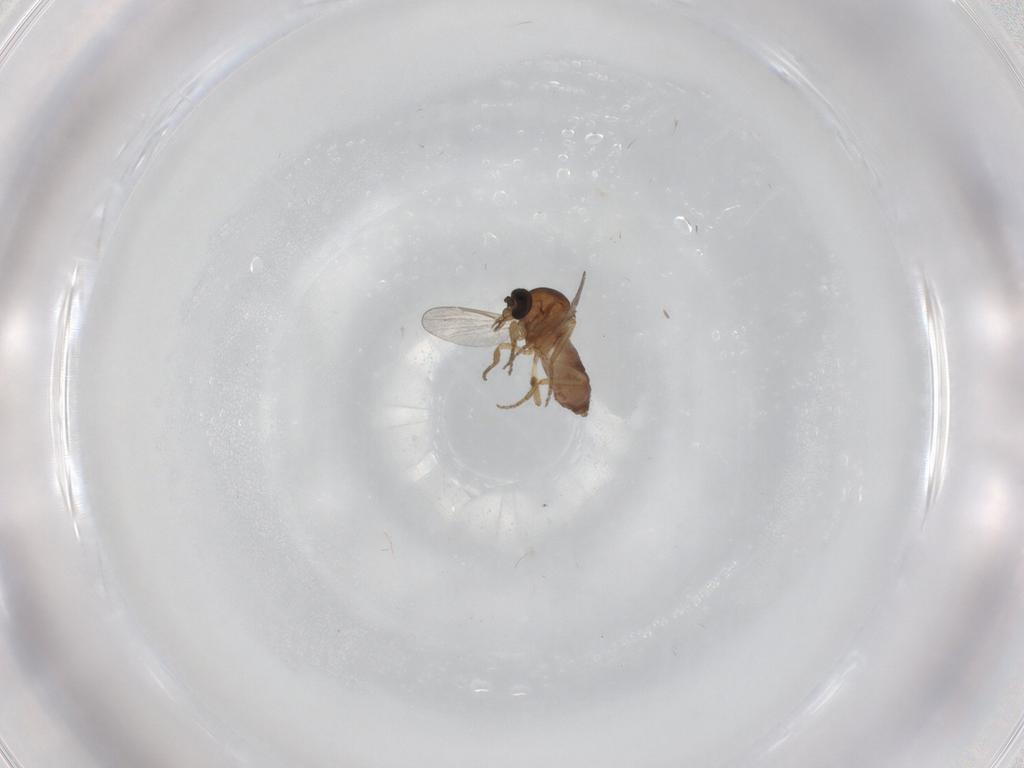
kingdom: Animalia
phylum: Arthropoda
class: Insecta
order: Diptera
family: Ceratopogonidae
